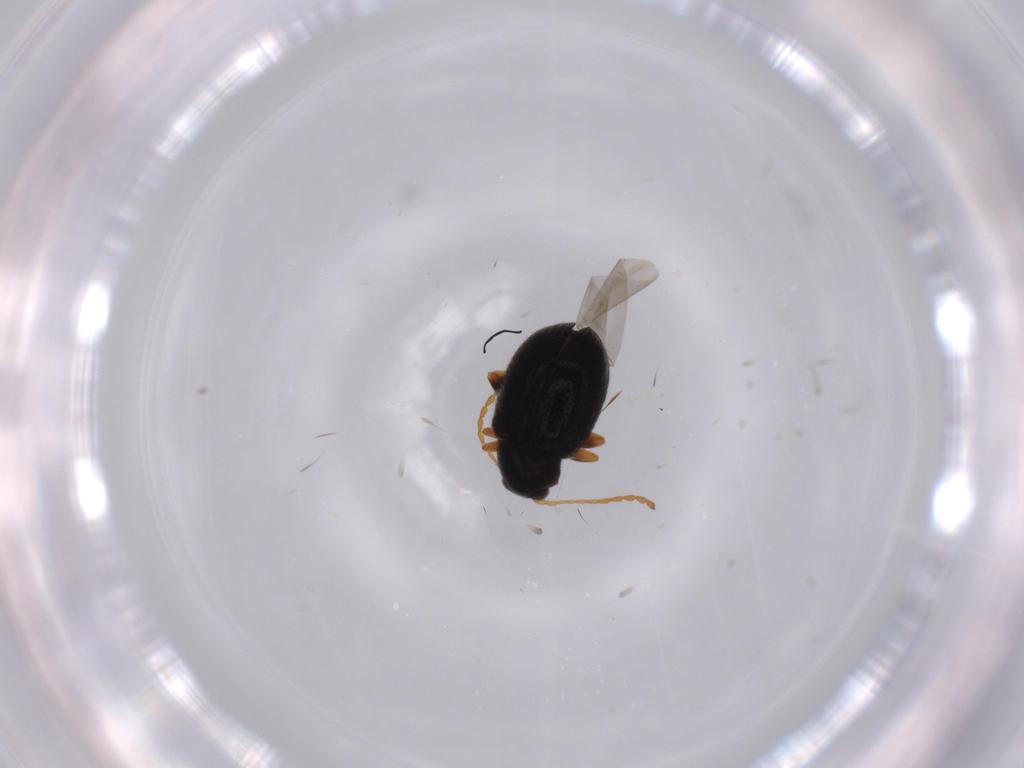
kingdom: Animalia
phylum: Arthropoda
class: Insecta
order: Coleoptera
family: Chrysomelidae
